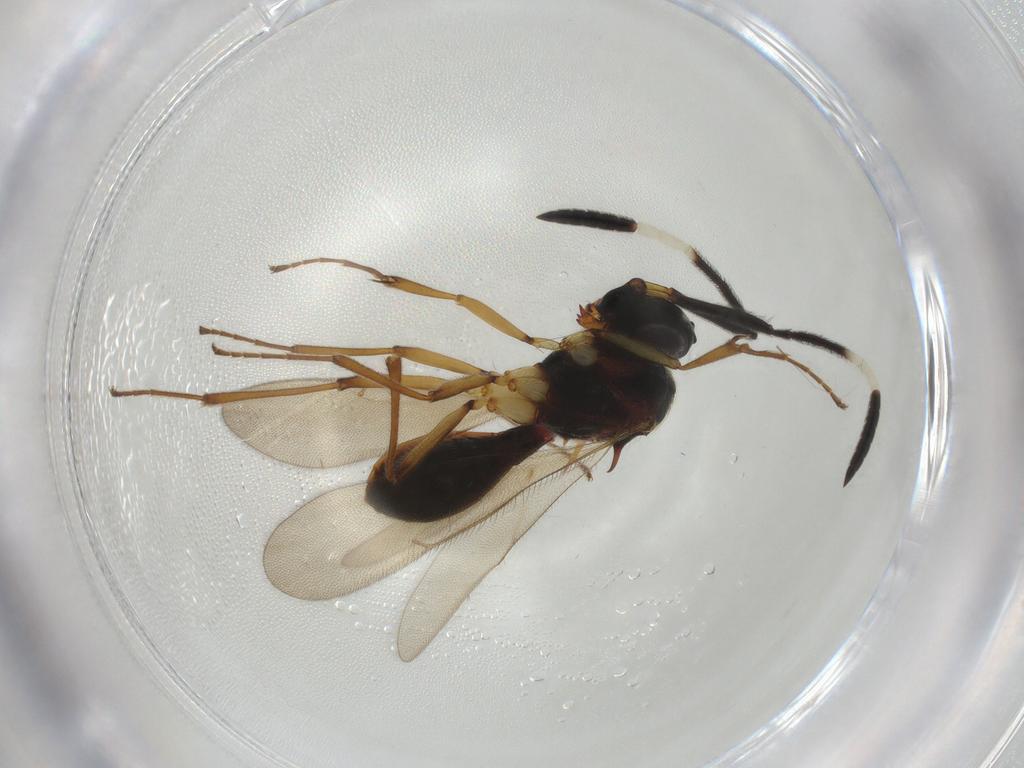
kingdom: Animalia
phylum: Arthropoda
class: Insecta
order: Hymenoptera
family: Scelionidae
